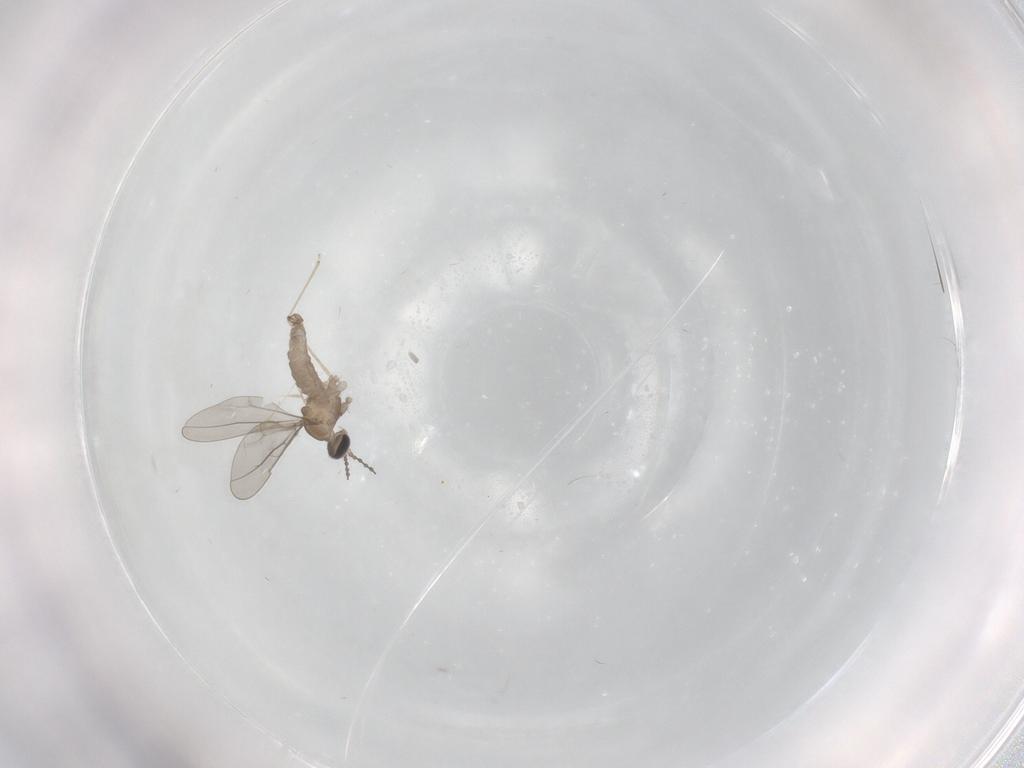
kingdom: Animalia
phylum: Arthropoda
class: Insecta
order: Diptera
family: Cecidomyiidae
